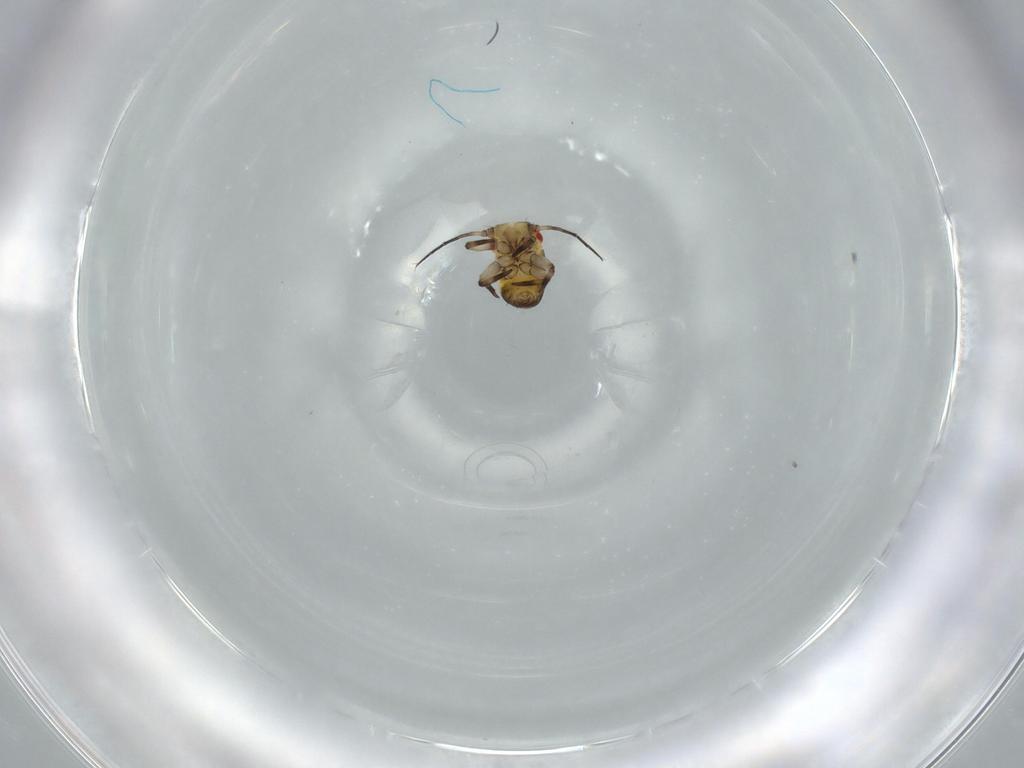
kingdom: Animalia
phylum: Arthropoda
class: Insecta
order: Hemiptera
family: Psyllidae
